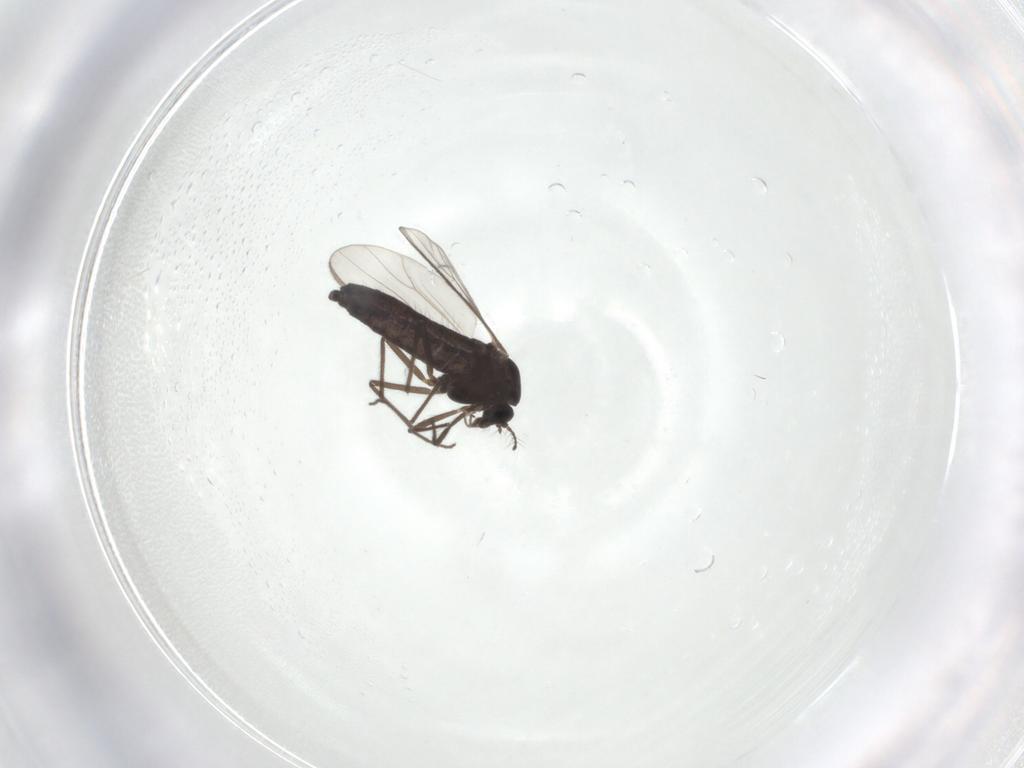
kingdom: Animalia
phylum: Arthropoda
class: Insecta
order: Diptera
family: Chironomidae
